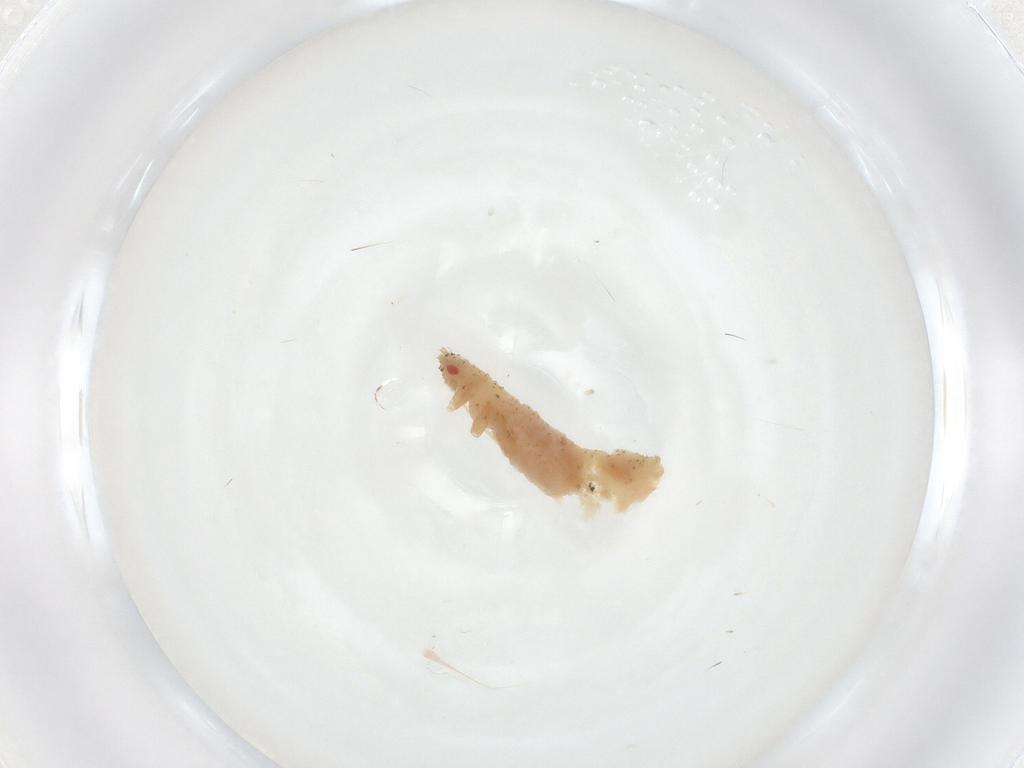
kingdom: Animalia
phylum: Arthropoda
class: Insecta
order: Hemiptera
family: Aphididae
